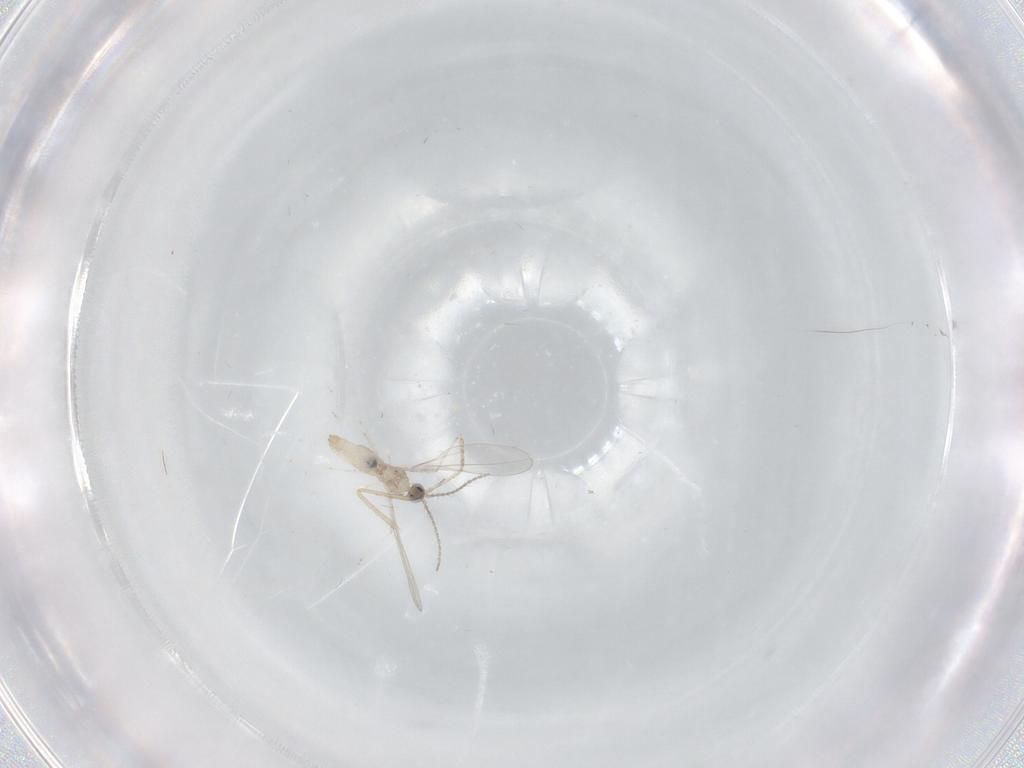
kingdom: Animalia
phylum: Arthropoda
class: Insecta
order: Diptera
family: Cecidomyiidae
